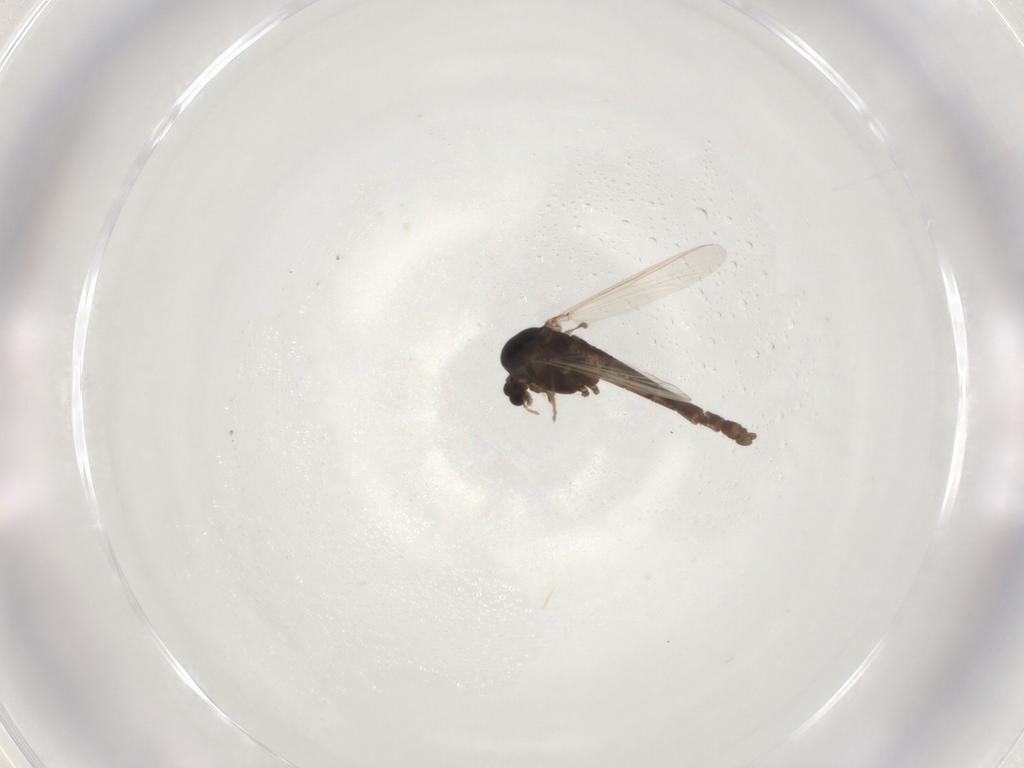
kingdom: Animalia
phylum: Arthropoda
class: Insecta
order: Diptera
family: Chironomidae
